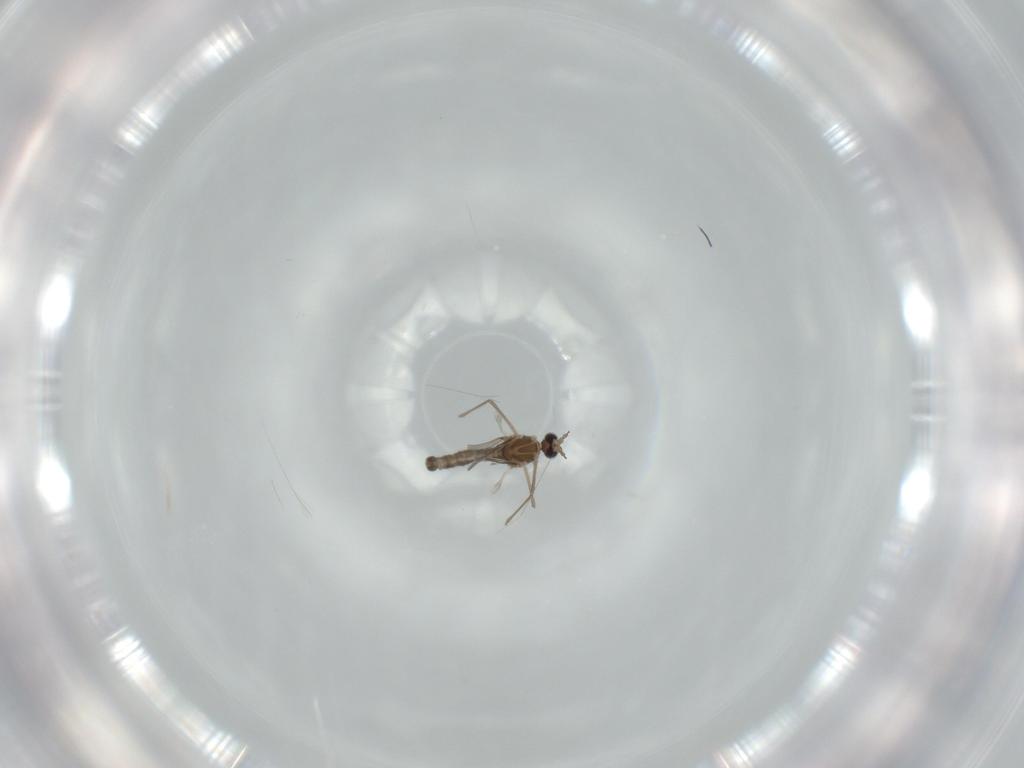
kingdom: Animalia
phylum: Arthropoda
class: Insecta
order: Diptera
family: Cecidomyiidae
